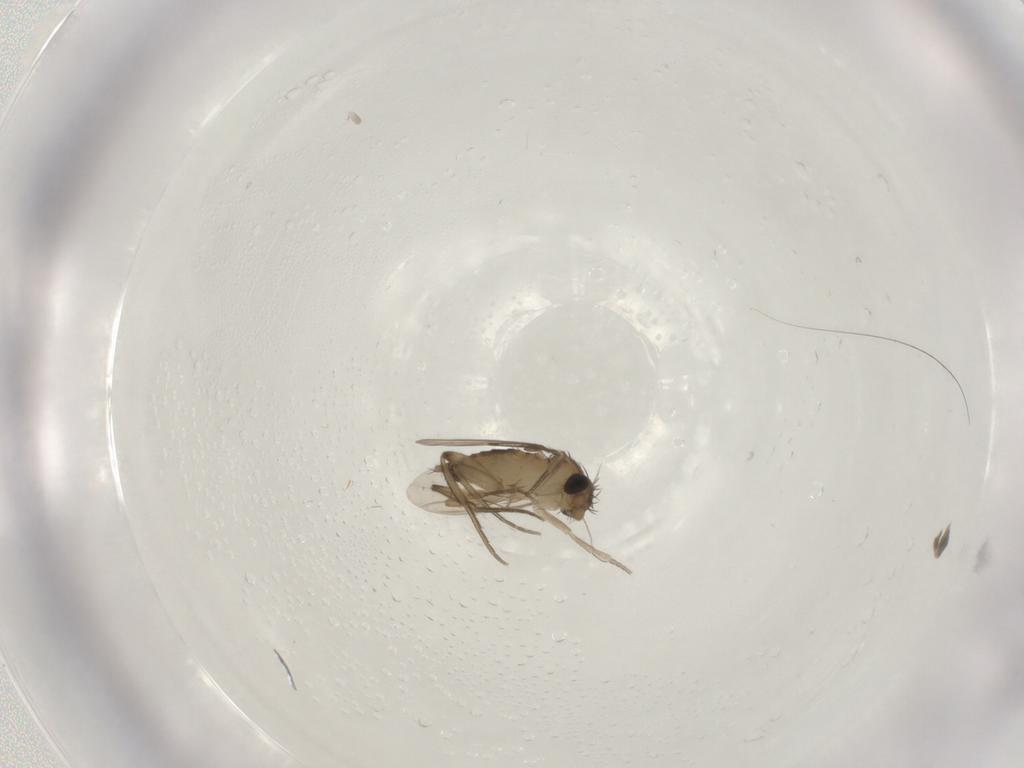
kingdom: Animalia
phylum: Arthropoda
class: Insecta
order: Diptera
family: Phoridae
